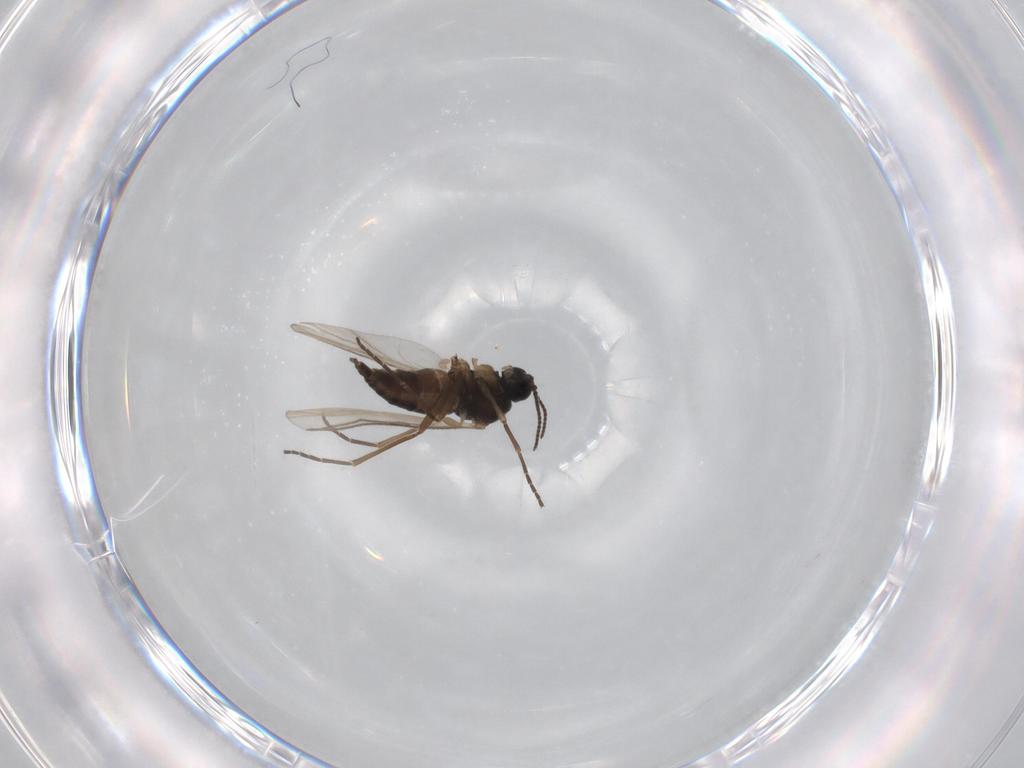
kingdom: Animalia
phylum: Arthropoda
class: Insecta
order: Diptera
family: Sciaridae
